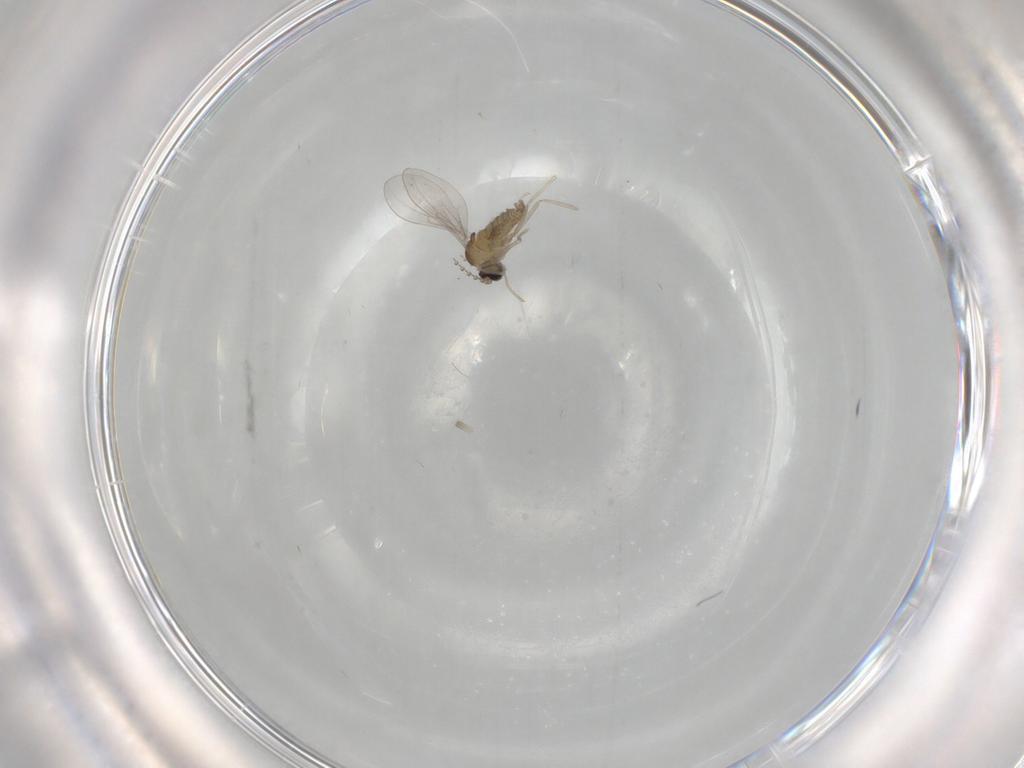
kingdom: Animalia
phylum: Arthropoda
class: Insecta
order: Diptera
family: Cecidomyiidae
